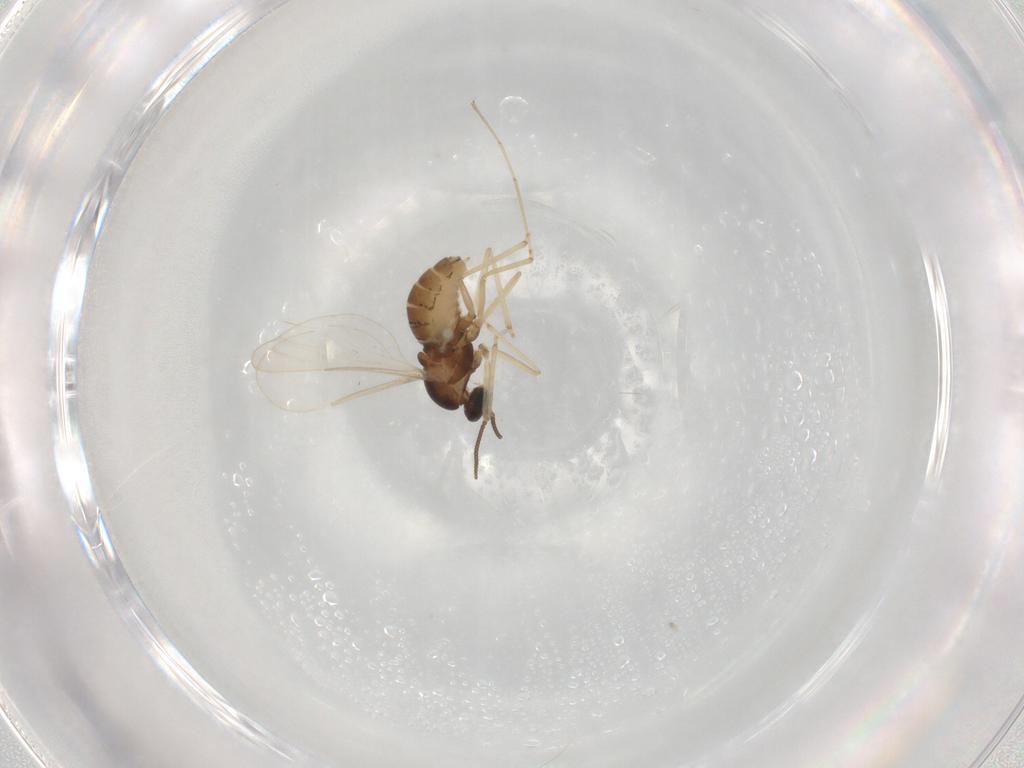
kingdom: Animalia
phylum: Arthropoda
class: Insecta
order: Diptera
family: Cecidomyiidae
